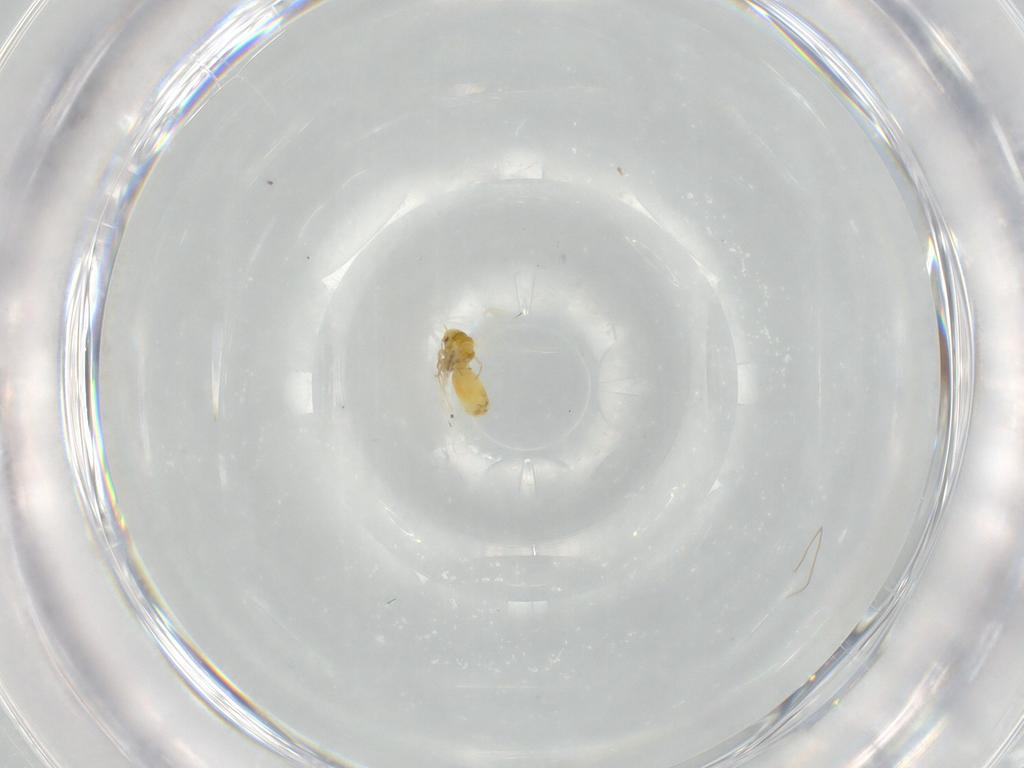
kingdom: Animalia
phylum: Arthropoda
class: Insecta
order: Hemiptera
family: Aleyrodidae
